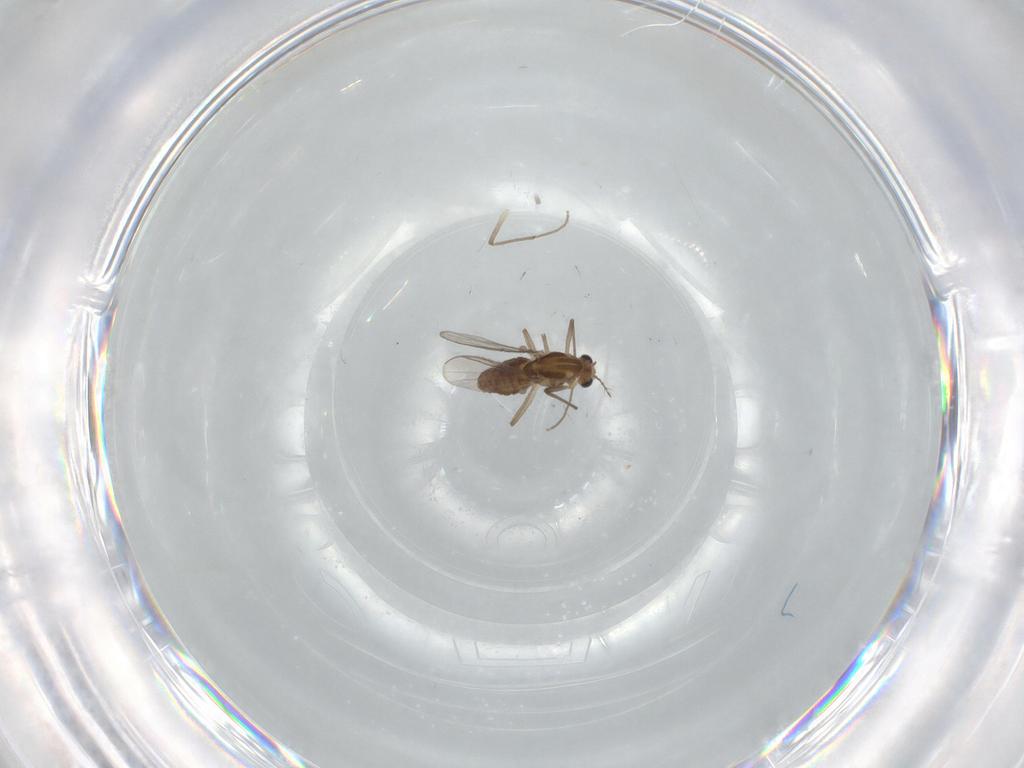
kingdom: Animalia
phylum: Arthropoda
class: Insecta
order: Diptera
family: Chironomidae
